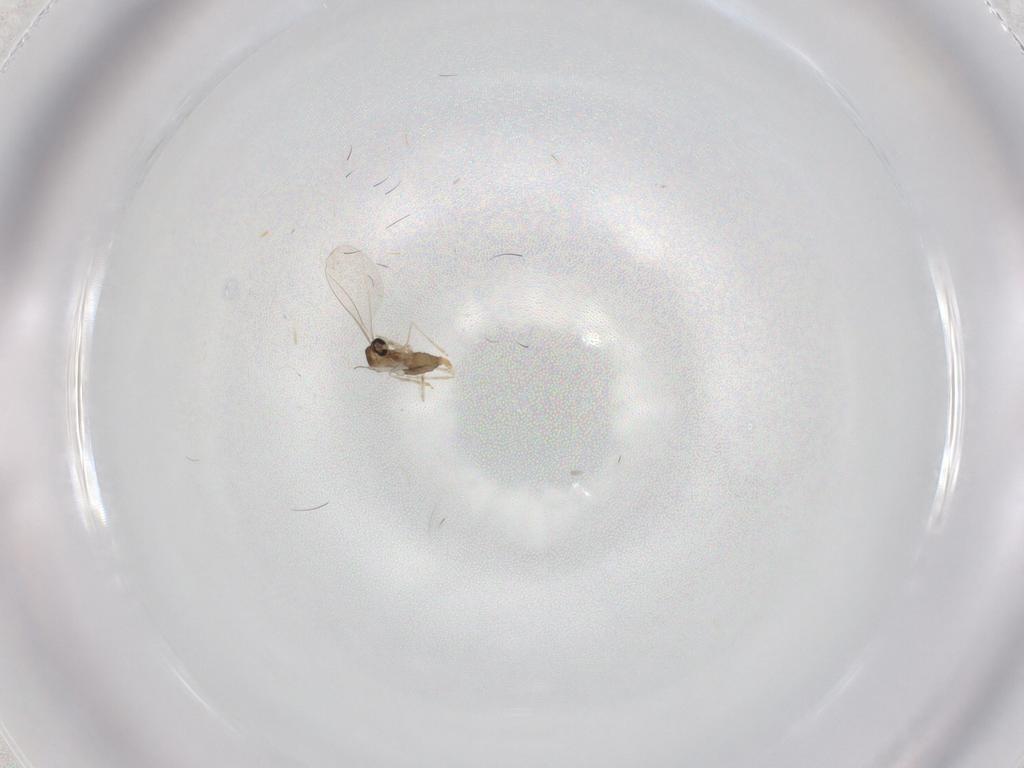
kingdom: Animalia
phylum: Arthropoda
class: Insecta
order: Diptera
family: Cecidomyiidae
